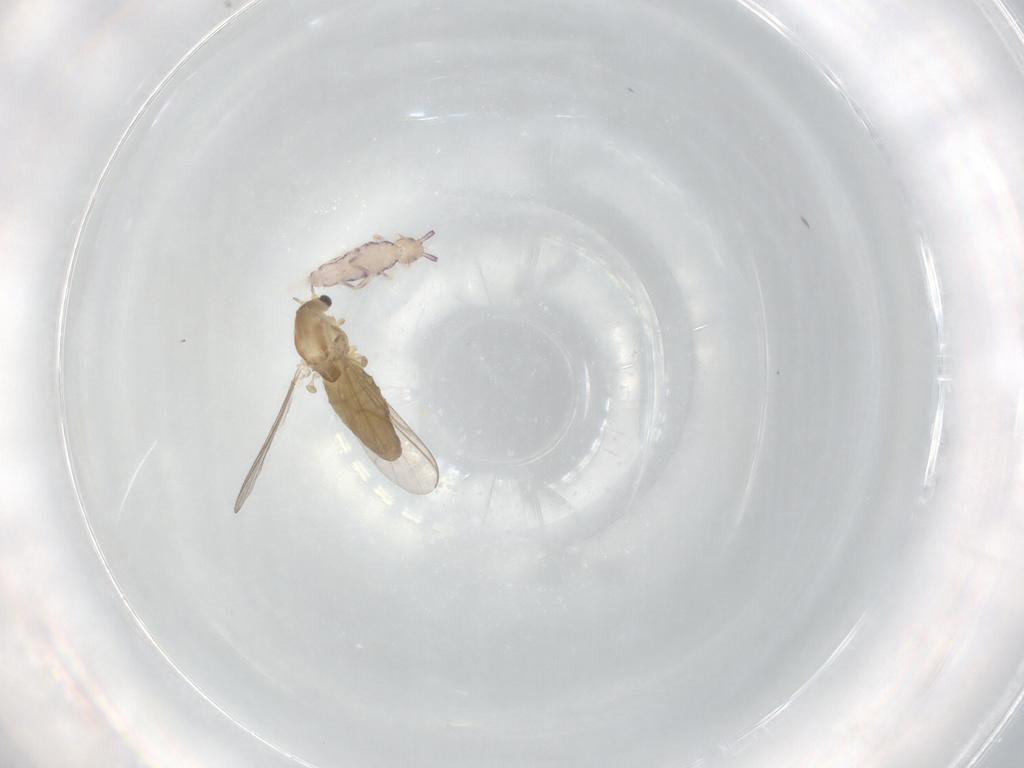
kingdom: Animalia
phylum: Arthropoda
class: Insecta
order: Diptera
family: Chironomidae
